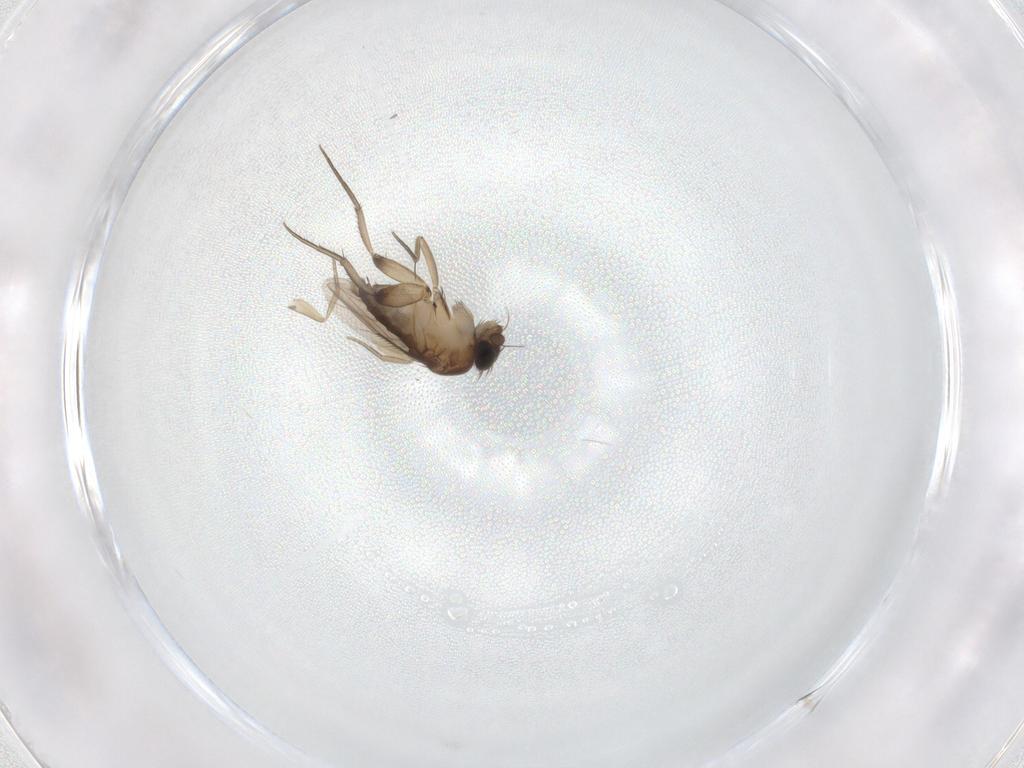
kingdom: Animalia
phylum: Arthropoda
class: Insecta
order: Diptera
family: Phoridae
